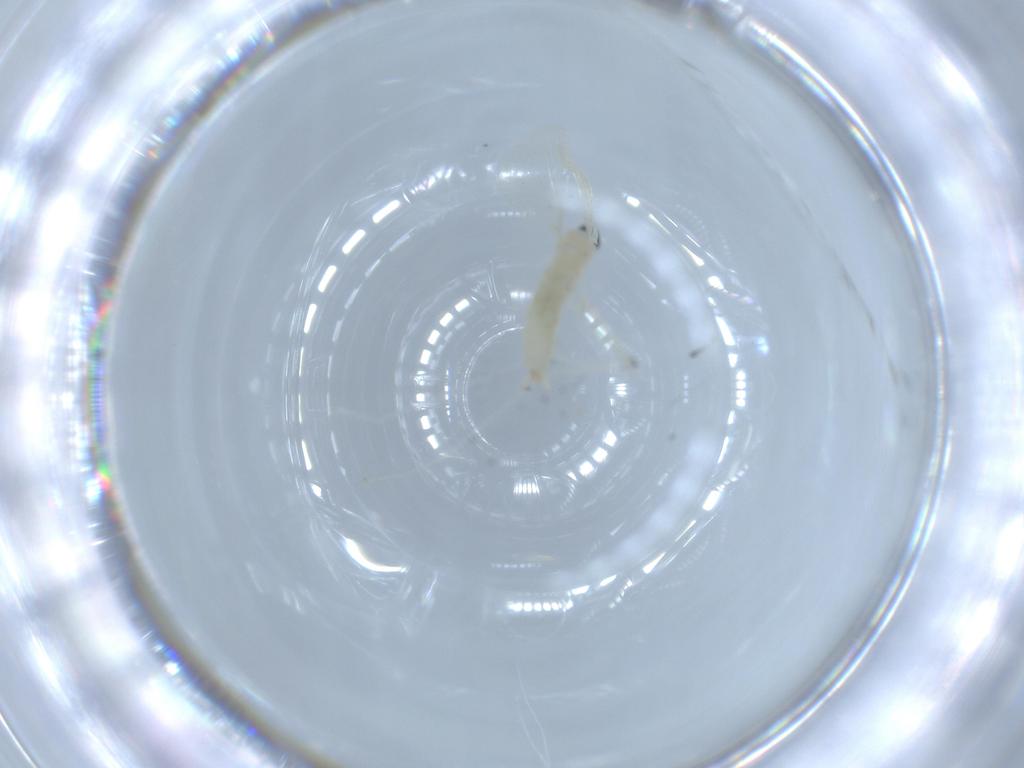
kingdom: Animalia
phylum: Arthropoda
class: Insecta
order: Diptera
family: Cecidomyiidae
